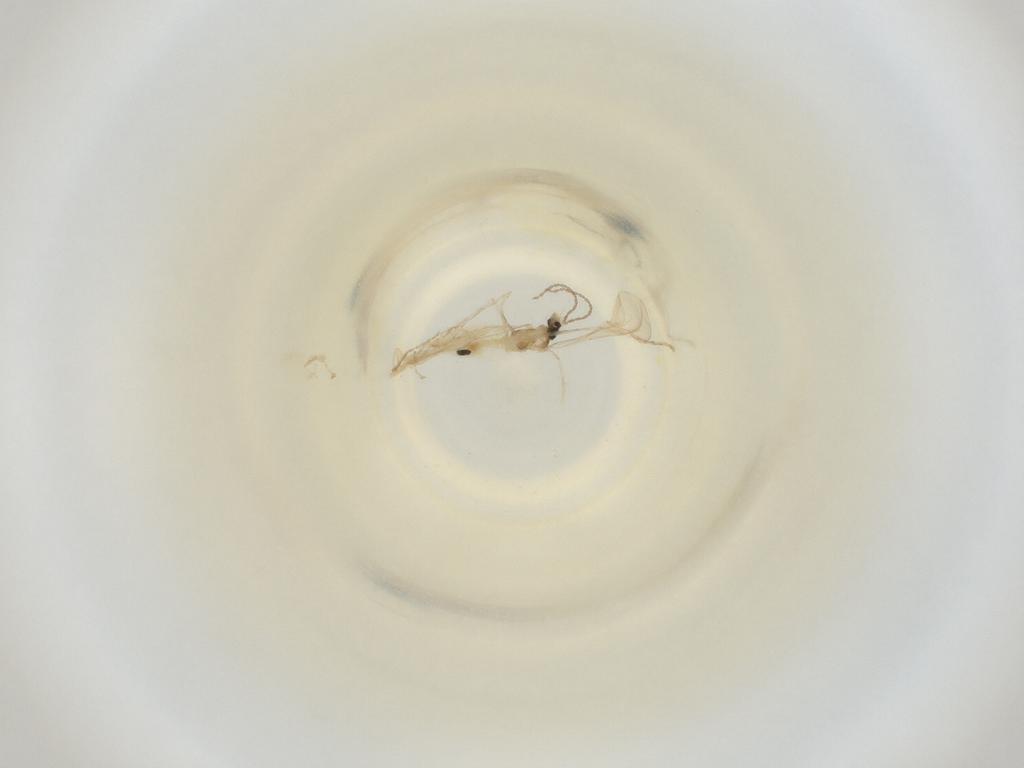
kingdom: Animalia
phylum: Arthropoda
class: Insecta
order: Diptera
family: Cecidomyiidae
